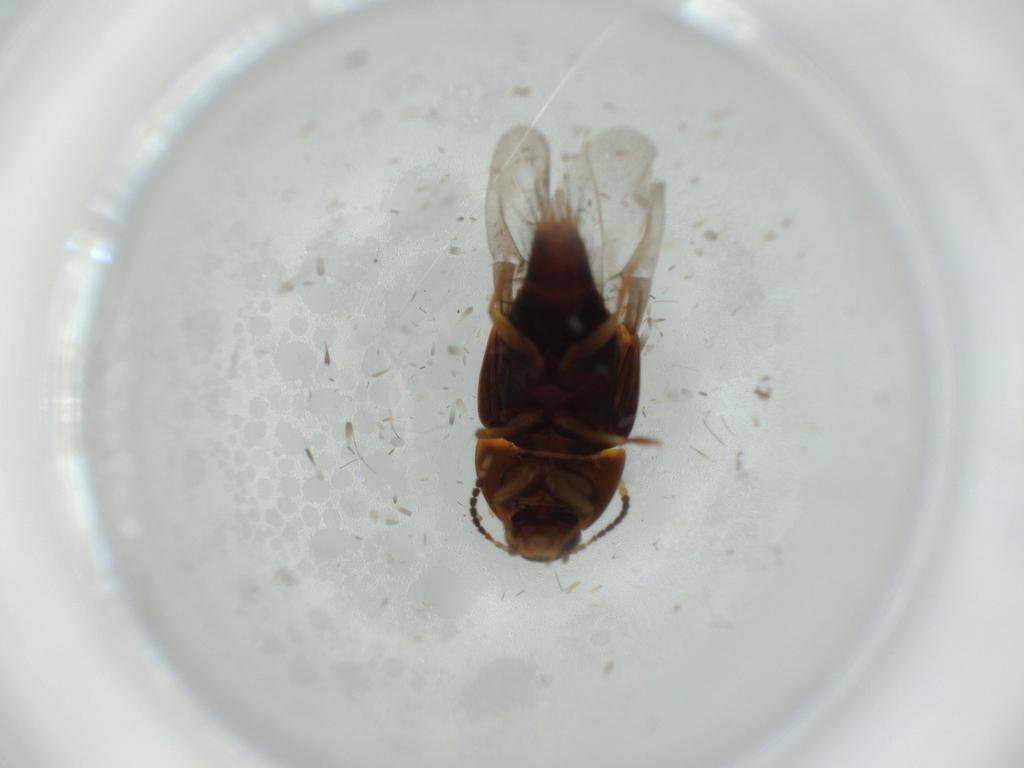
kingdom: Animalia
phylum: Arthropoda
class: Insecta
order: Coleoptera
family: Staphylinidae
